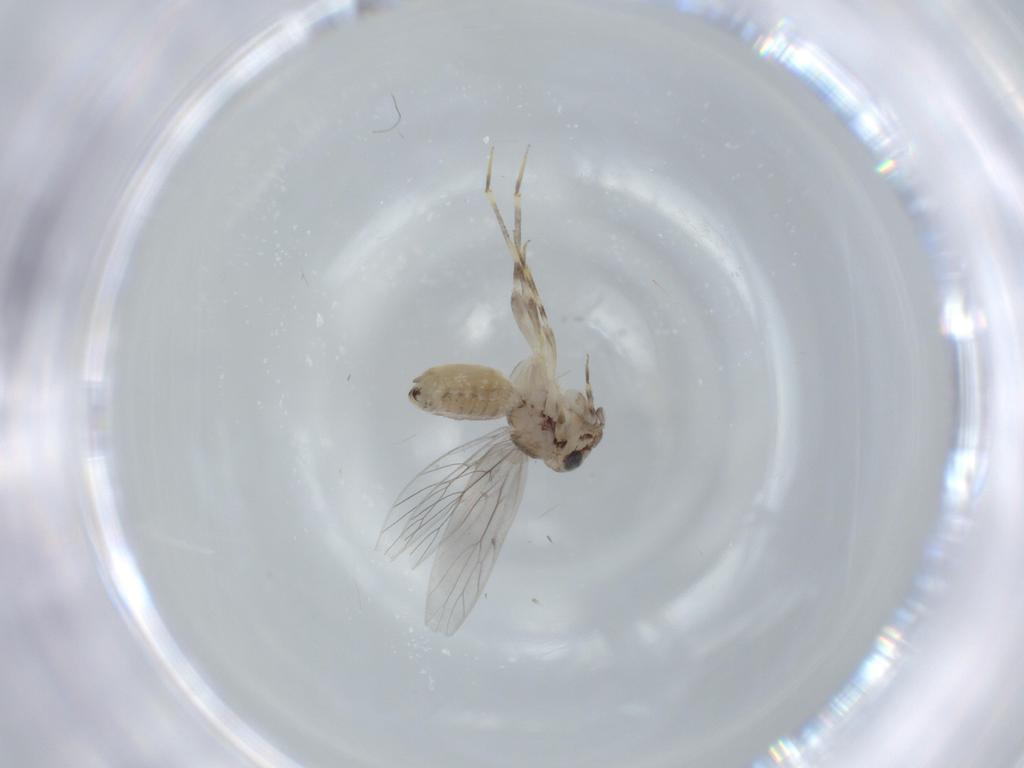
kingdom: Animalia
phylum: Arthropoda
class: Insecta
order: Psocodea
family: Lepidopsocidae
